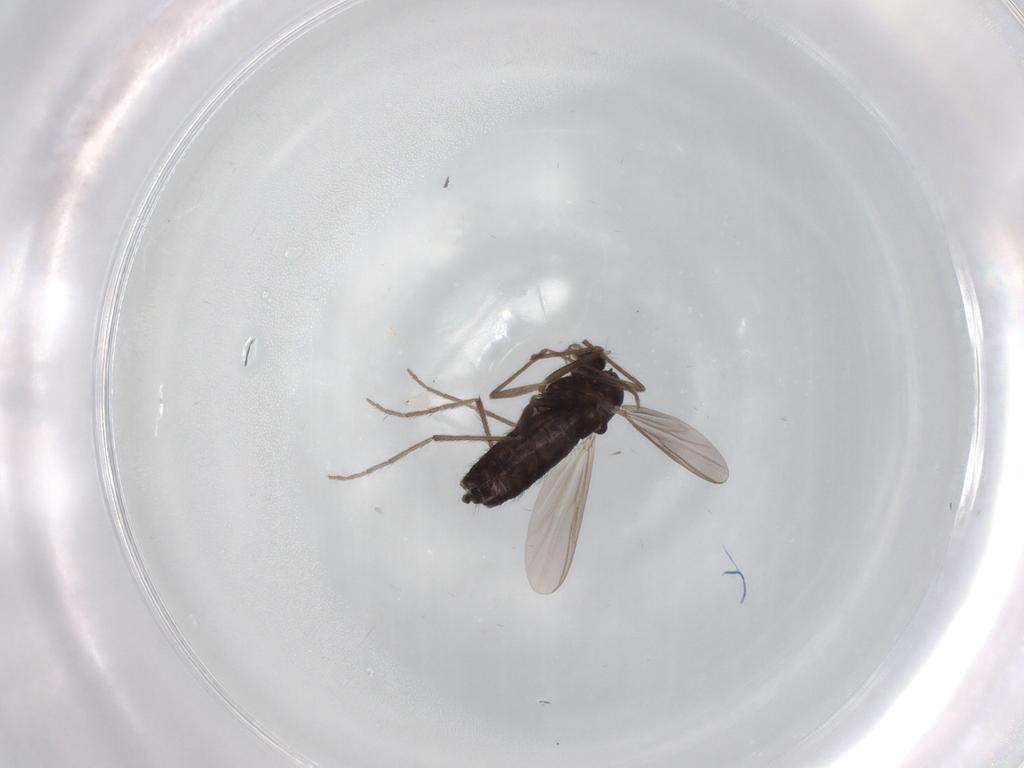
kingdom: Animalia
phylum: Arthropoda
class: Insecta
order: Diptera
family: Chironomidae
